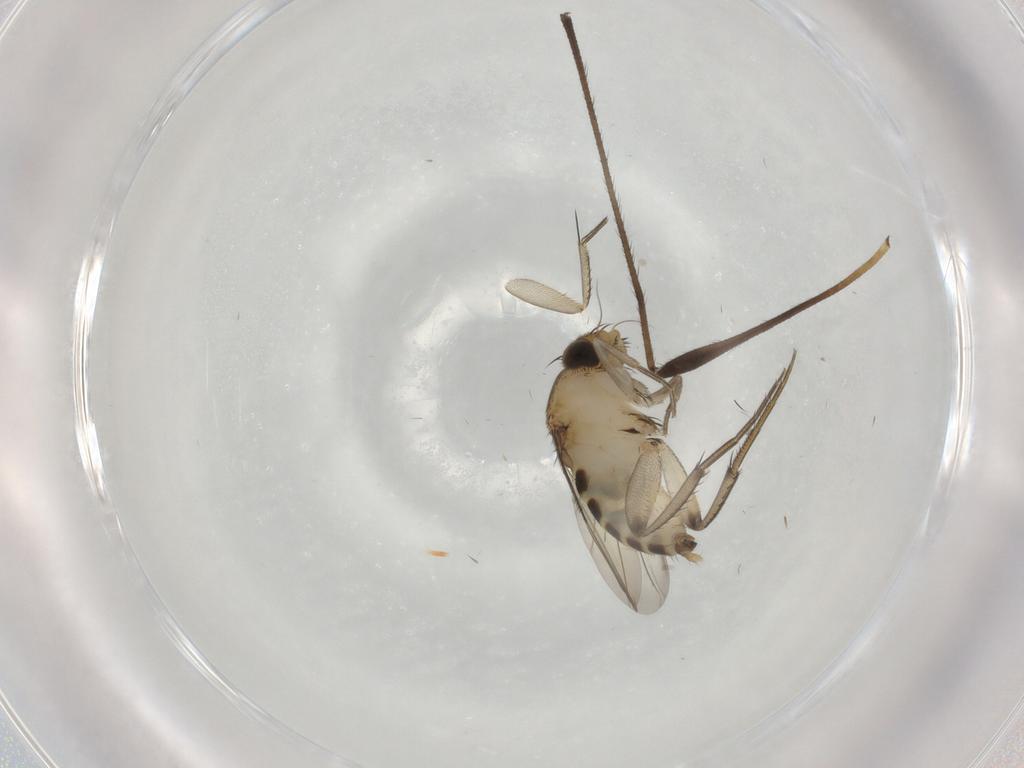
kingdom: Animalia
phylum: Arthropoda
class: Insecta
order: Diptera
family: Phoridae
